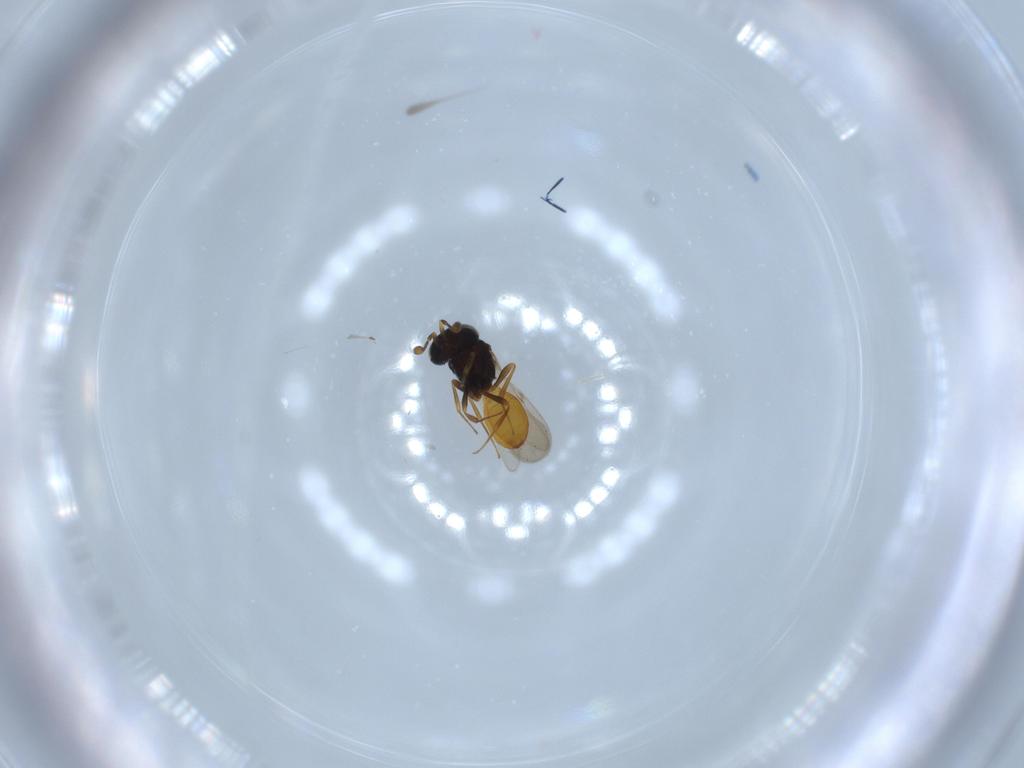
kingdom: Animalia
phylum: Arthropoda
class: Insecta
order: Hymenoptera
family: Scelionidae
